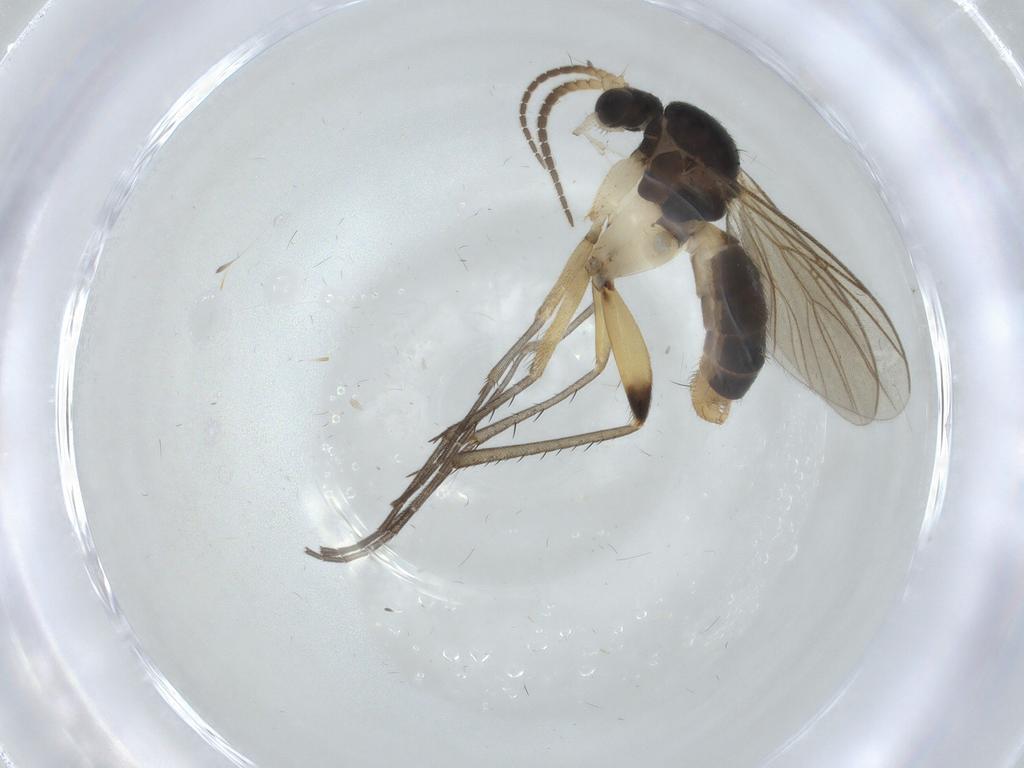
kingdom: Animalia
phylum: Arthropoda
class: Insecta
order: Diptera
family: Mycetophilidae
